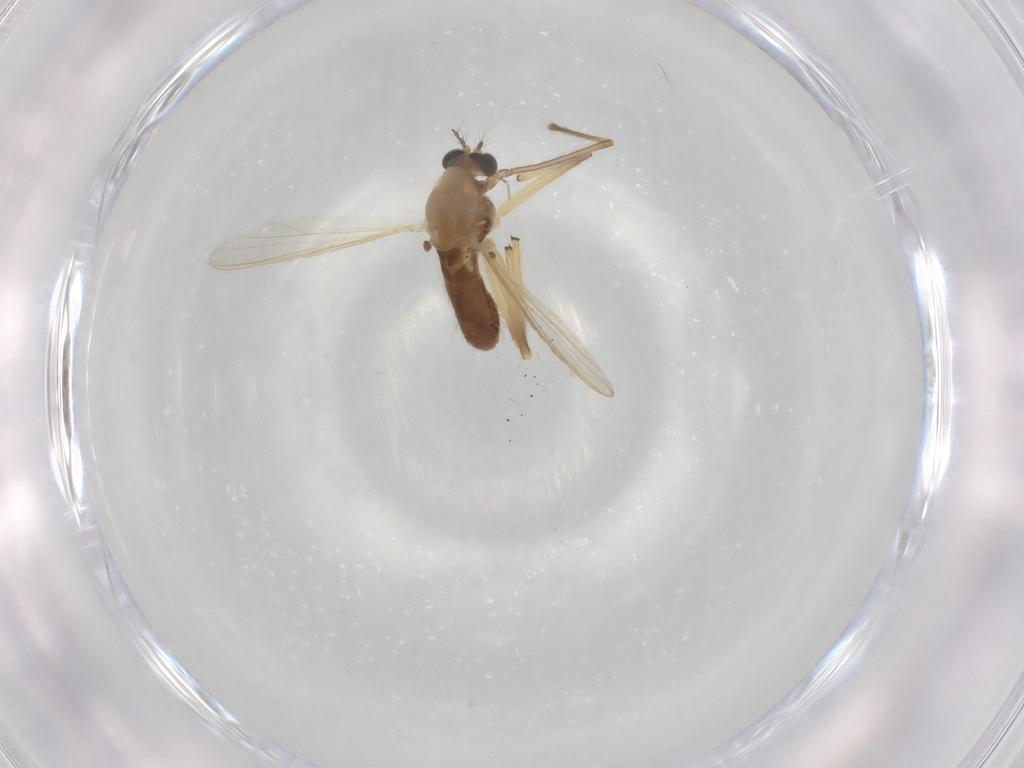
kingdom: Animalia
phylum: Arthropoda
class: Insecta
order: Diptera
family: Chironomidae
